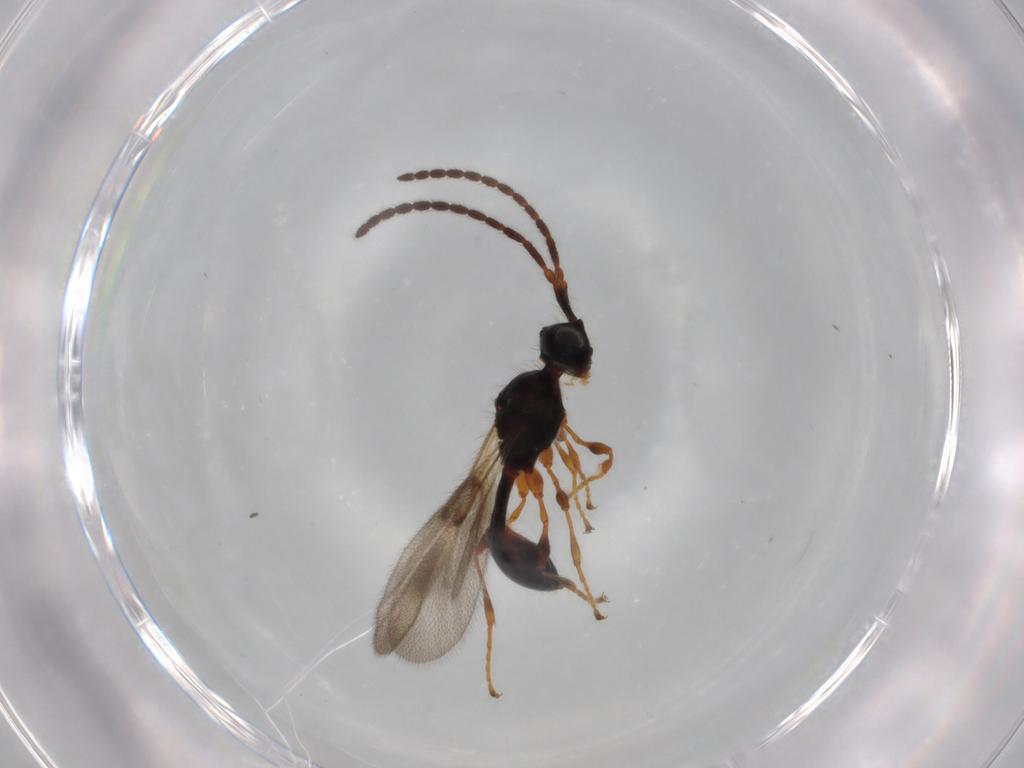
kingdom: Animalia
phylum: Arthropoda
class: Insecta
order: Hymenoptera
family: Diapriidae
